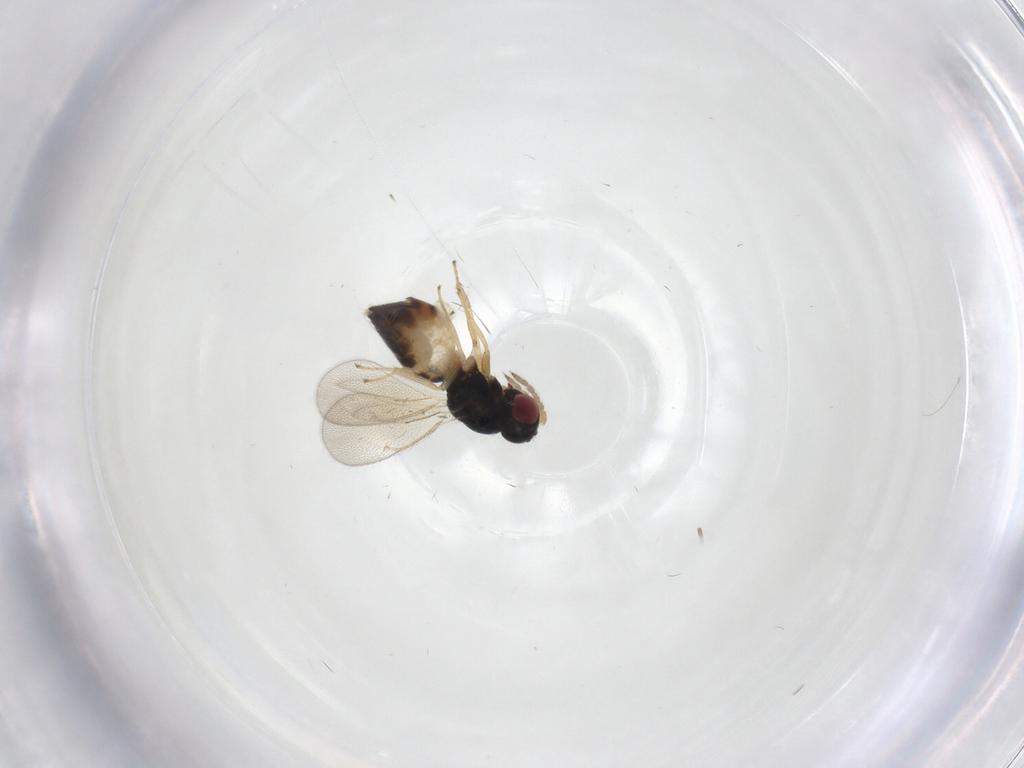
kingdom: Animalia
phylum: Arthropoda
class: Insecta
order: Hymenoptera
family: Eulophidae
